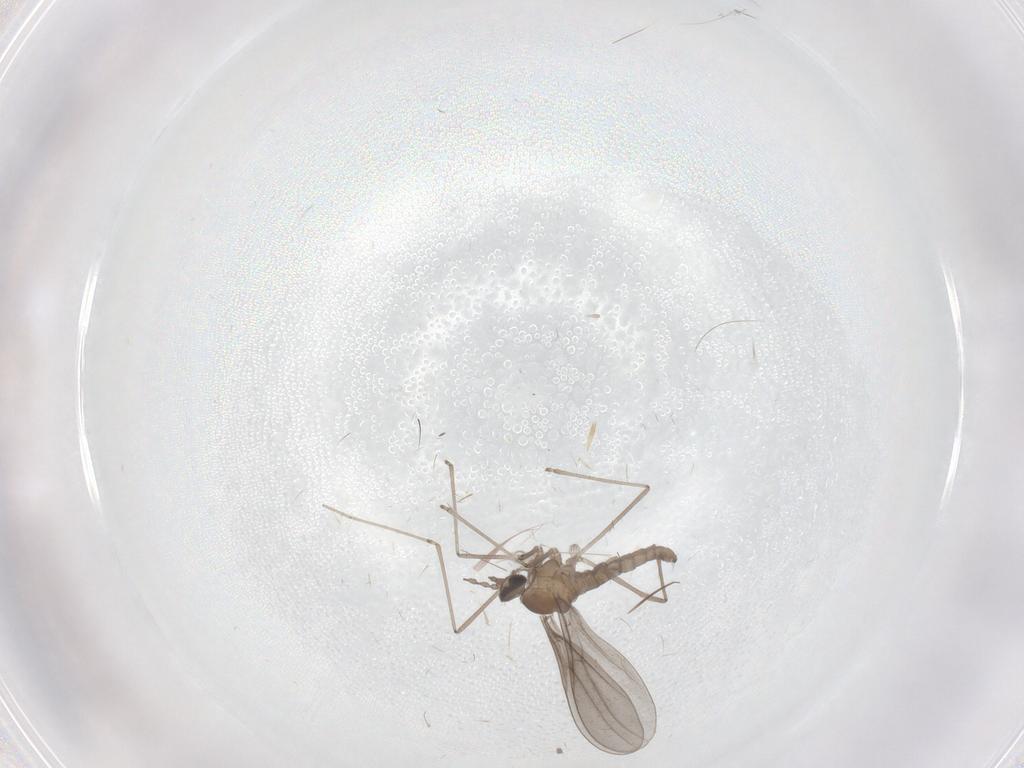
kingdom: Animalia
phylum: Arthropoda
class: Insecta
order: Diptera
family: Cecidomyiidae
